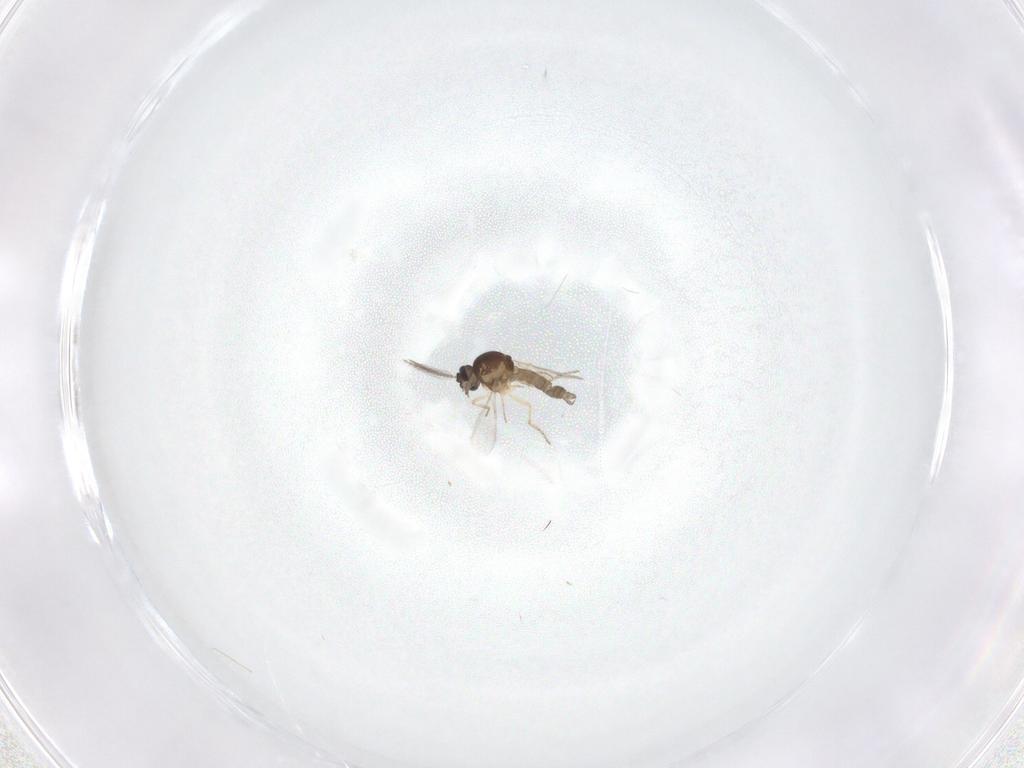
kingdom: Animalia
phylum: Arthropoda
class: Insecta
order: Diptera
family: Ceratopogonidae
